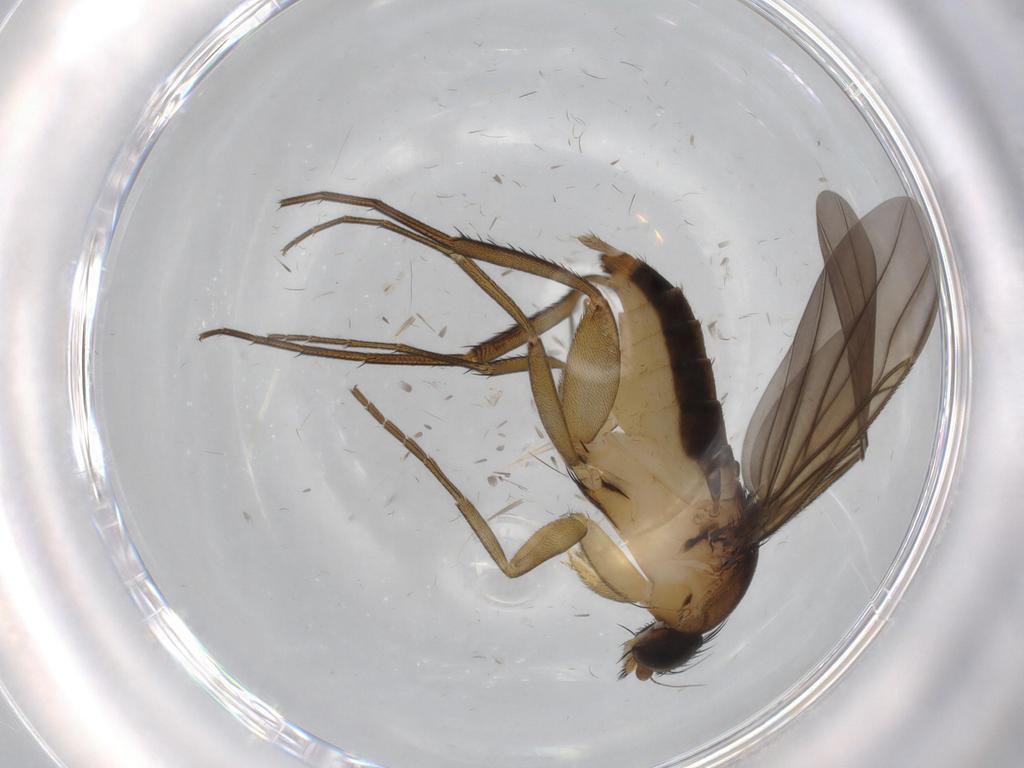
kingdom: Animalia
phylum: Arthropoda
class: Insecta
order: Diptera
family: Phoridae
